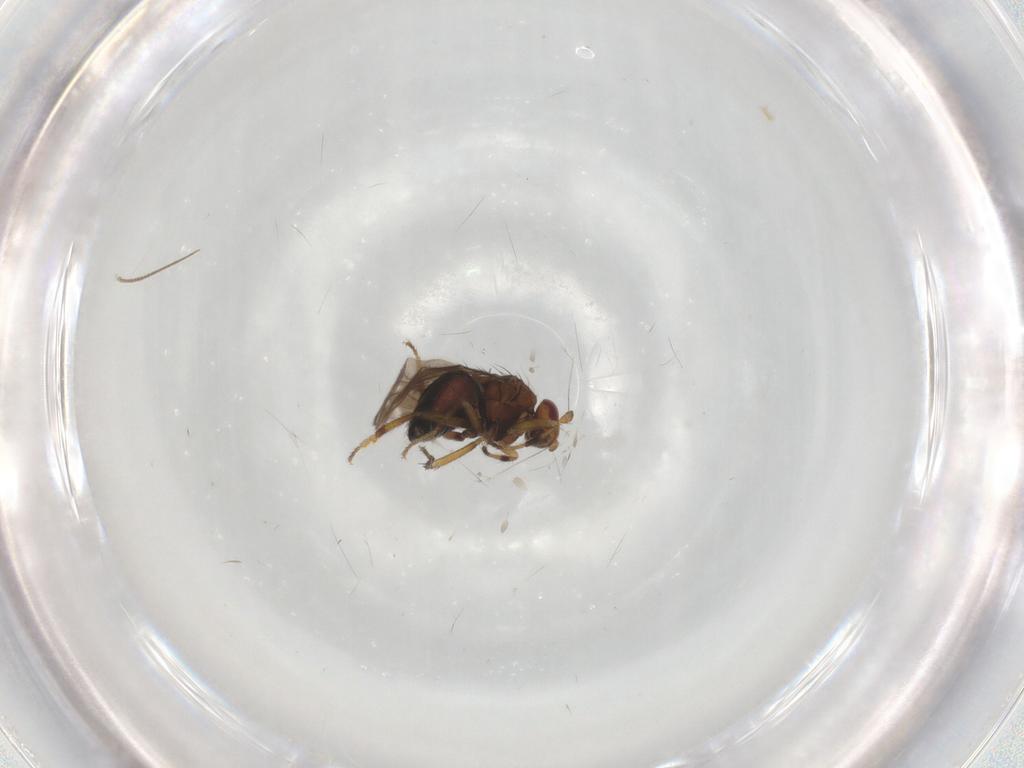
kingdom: Animalia
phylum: Arthropoda
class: Insecta
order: Diptera
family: Sphaeroceridae
